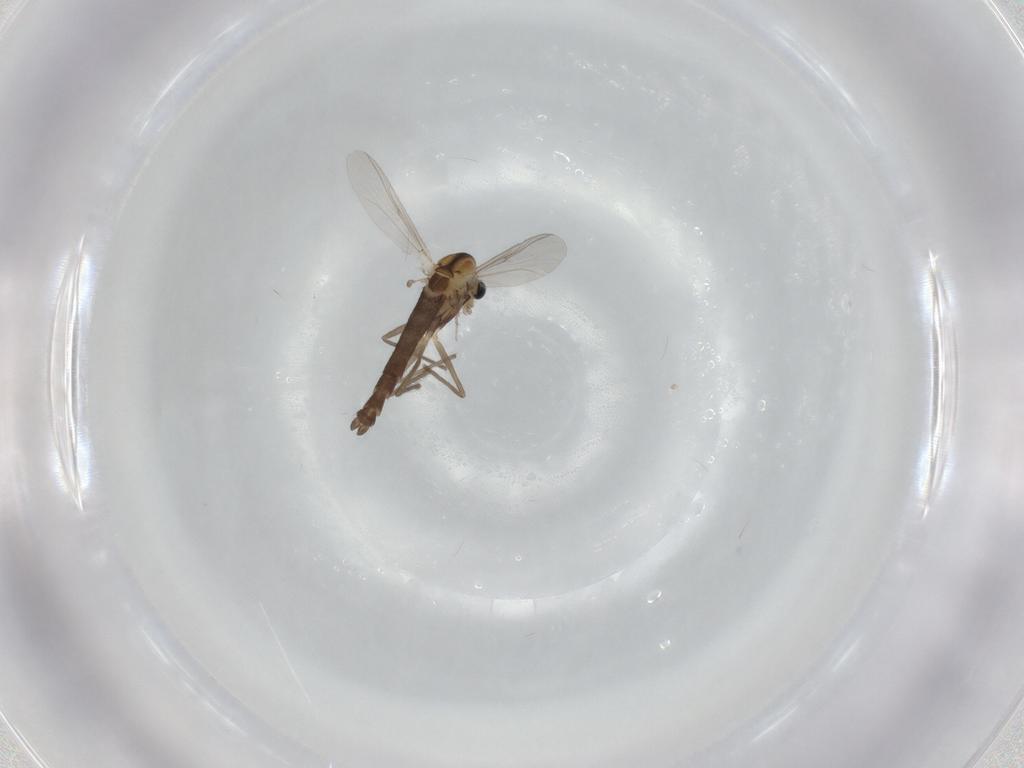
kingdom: Animalia
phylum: Arthropoda
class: Insecta
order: Diptera
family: Chironomidae
